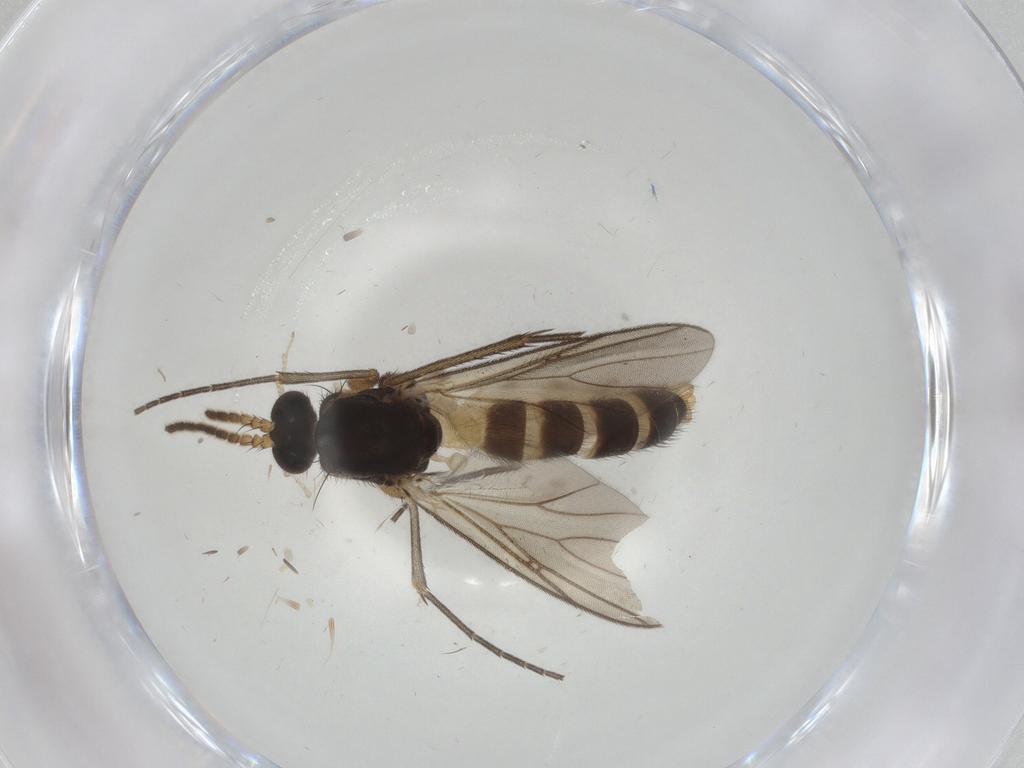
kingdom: Animalia
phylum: Arthropoda
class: Insecta
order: Diptera
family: Mycetophilidae
